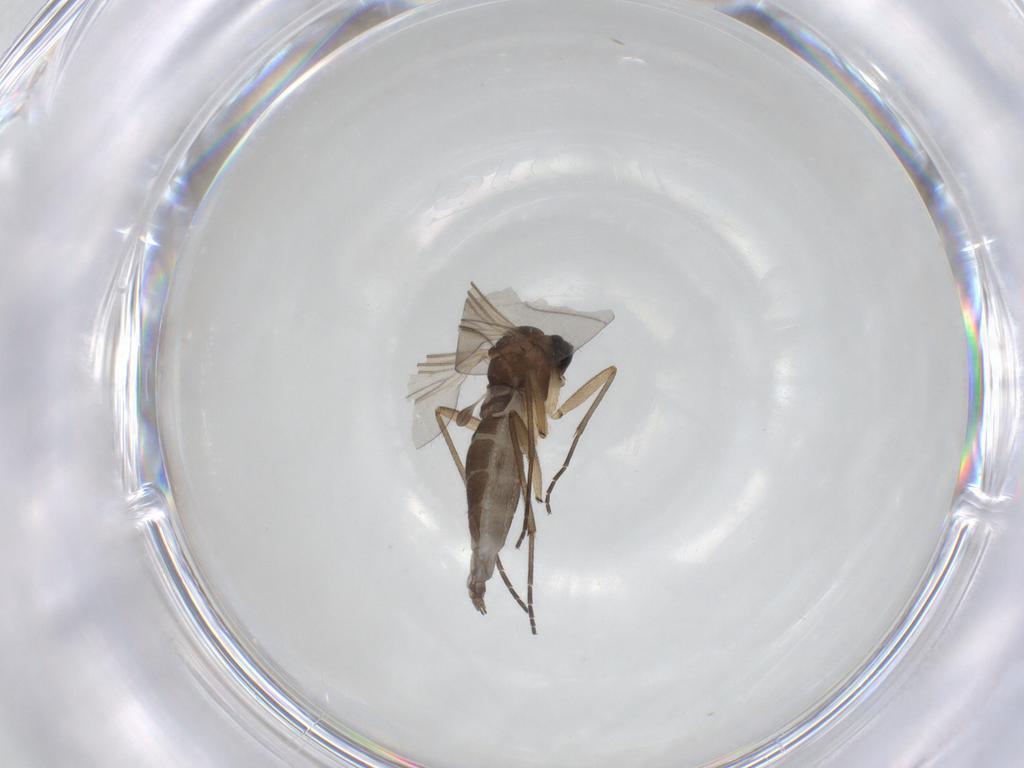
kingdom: Animalia
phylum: Arthropoda
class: Insecta
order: Diptera
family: Sciaridae
